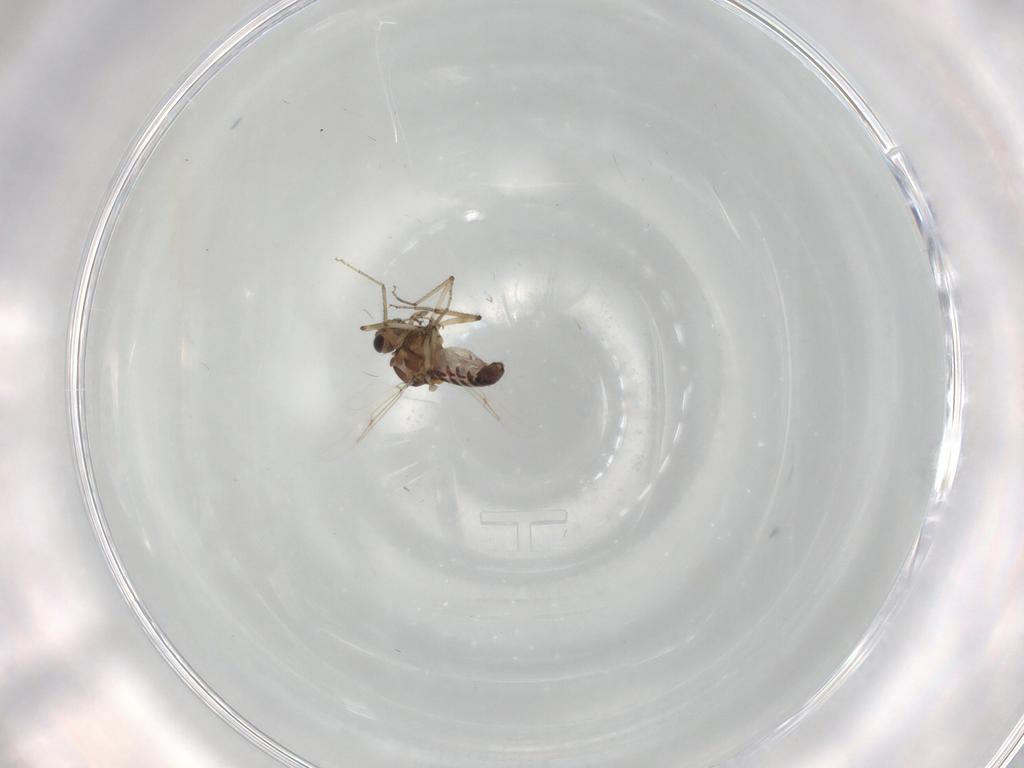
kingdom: Animalia
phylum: Arthropoda
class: Insecta
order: Diptera
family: Ceratopogonidae
